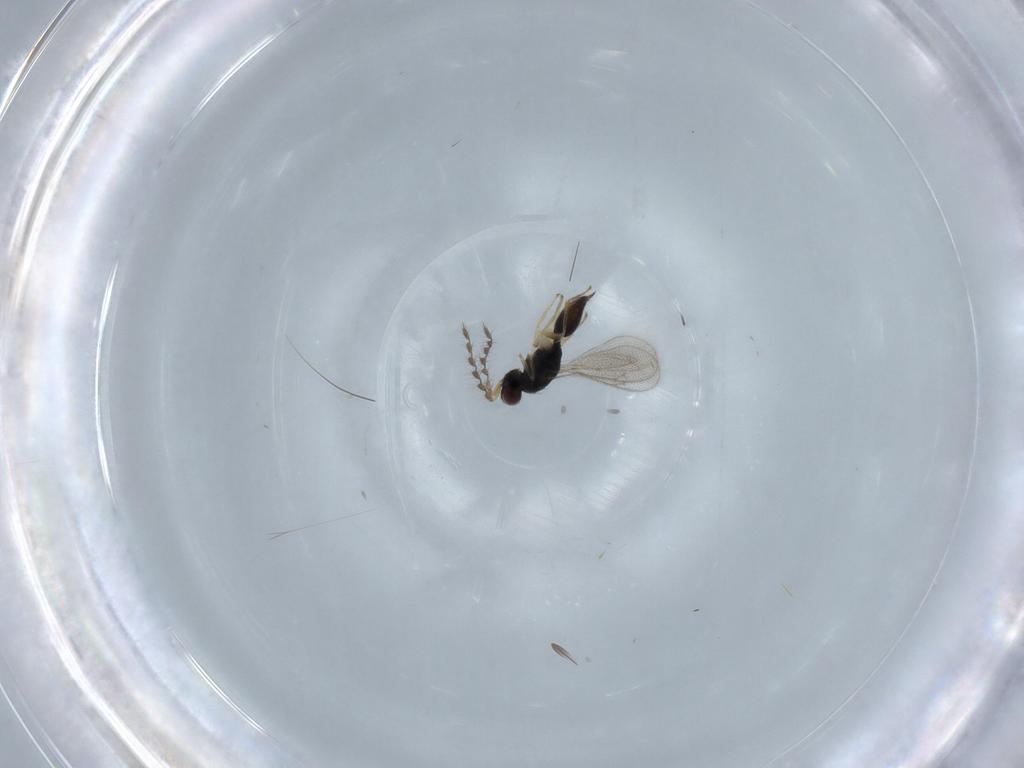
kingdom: Animalia
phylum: Arthropoda
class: Insecta
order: Hymenoptera
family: Eulophidae
